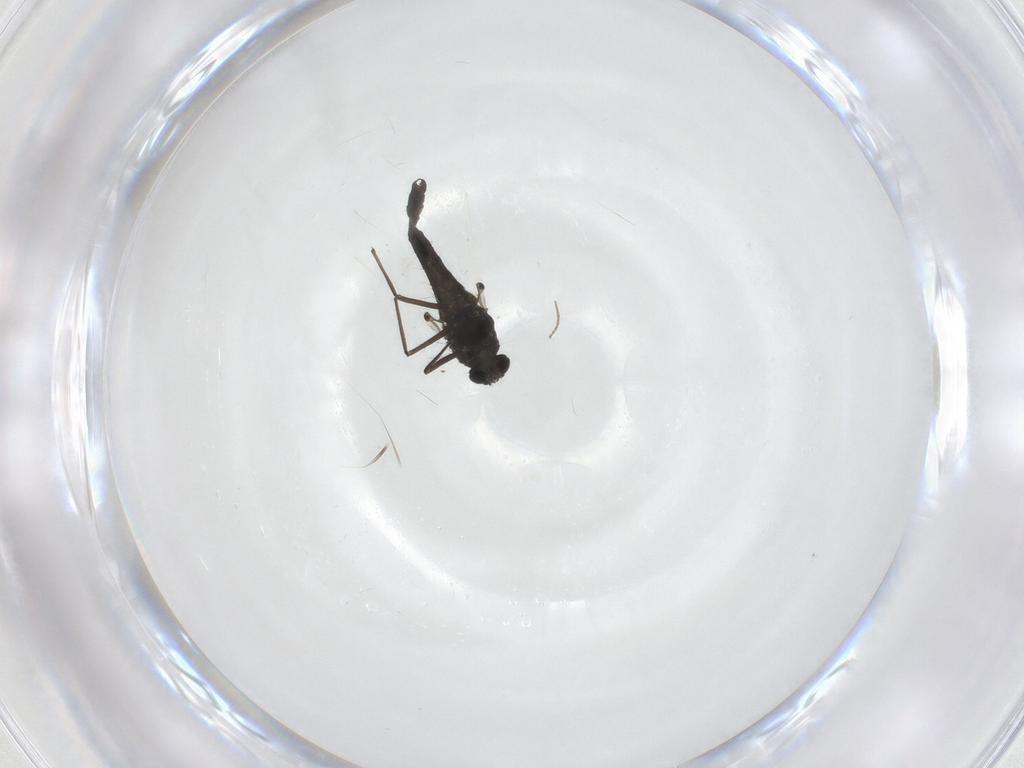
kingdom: Animalia
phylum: Arthropoda
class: Insecta
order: Diptera
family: Chironomidae
